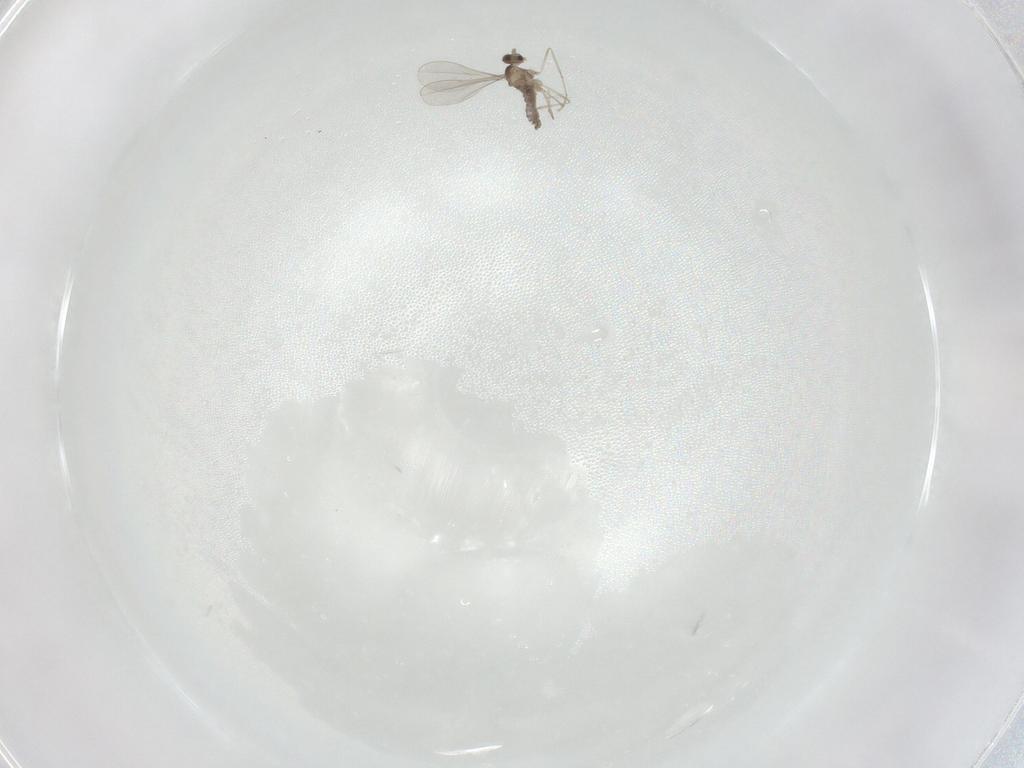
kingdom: Animalia
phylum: Arthropoda
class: Insecta
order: Diptera
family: Cecidomyiidae
